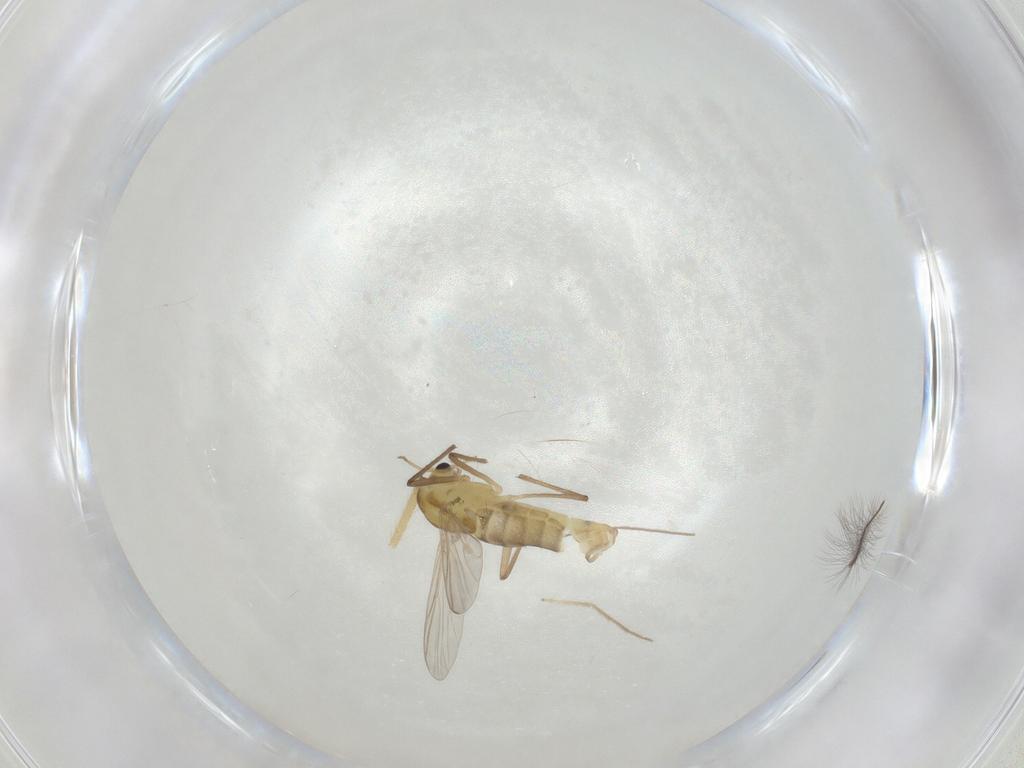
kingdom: Animalia
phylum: Arthropoda
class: Insecta
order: Diptera
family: Chironomidae
